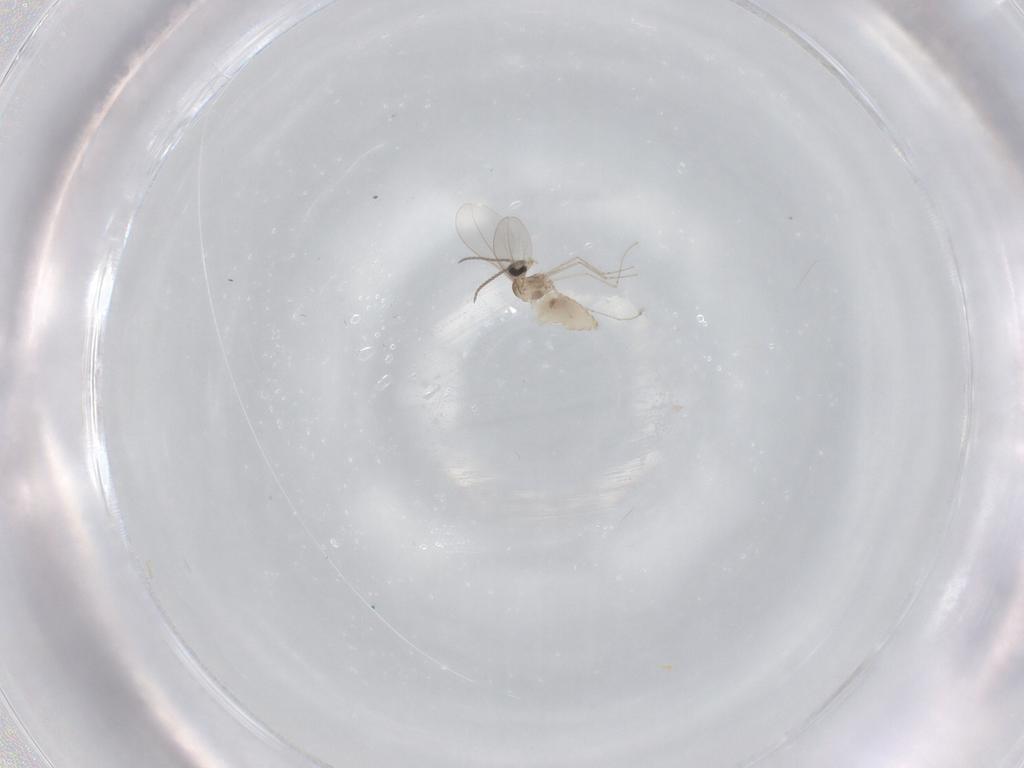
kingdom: Animalia
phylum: Arthropoda
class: Insecta
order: Diptera
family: Cecidomyiidae
